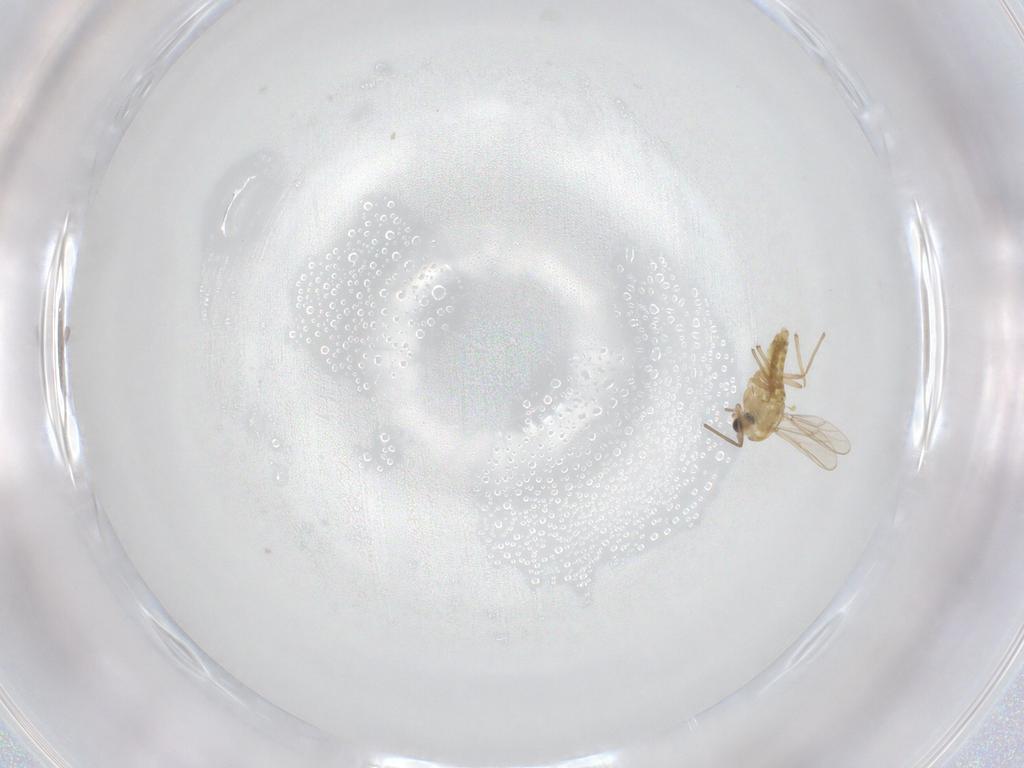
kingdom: Animalia
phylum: Arthropoda
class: Insecta
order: Diptera
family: Chironomidae
